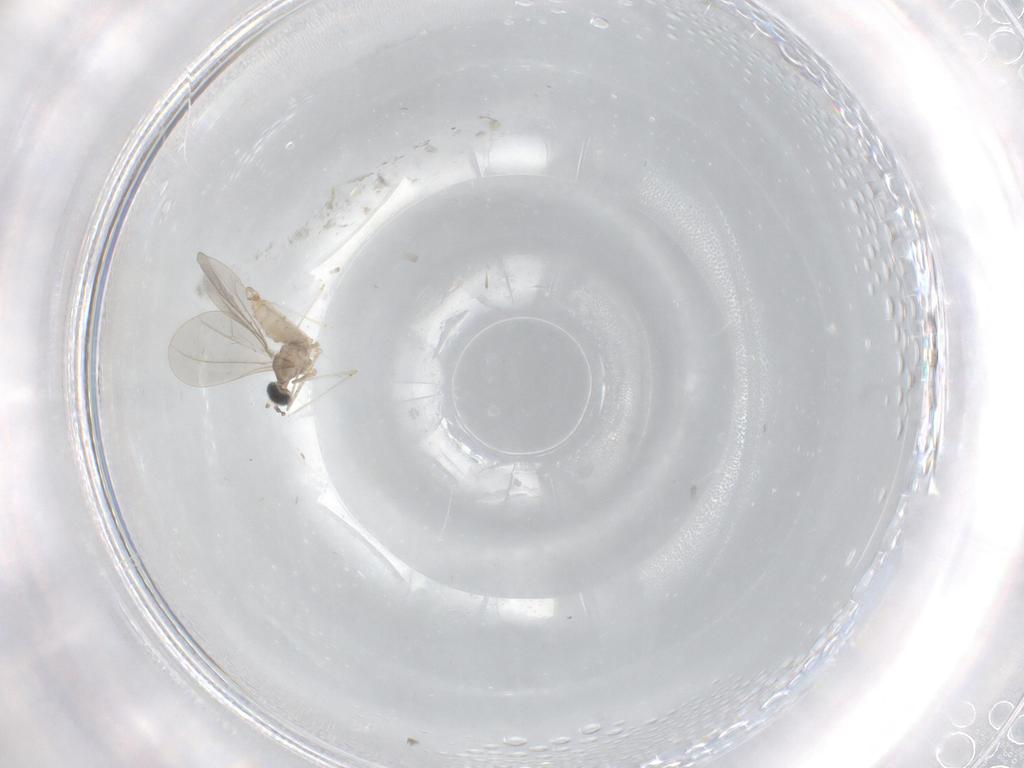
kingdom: Animalia
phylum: Arthropoda
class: Insecta
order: Diptera
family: Cecidomyiidae
